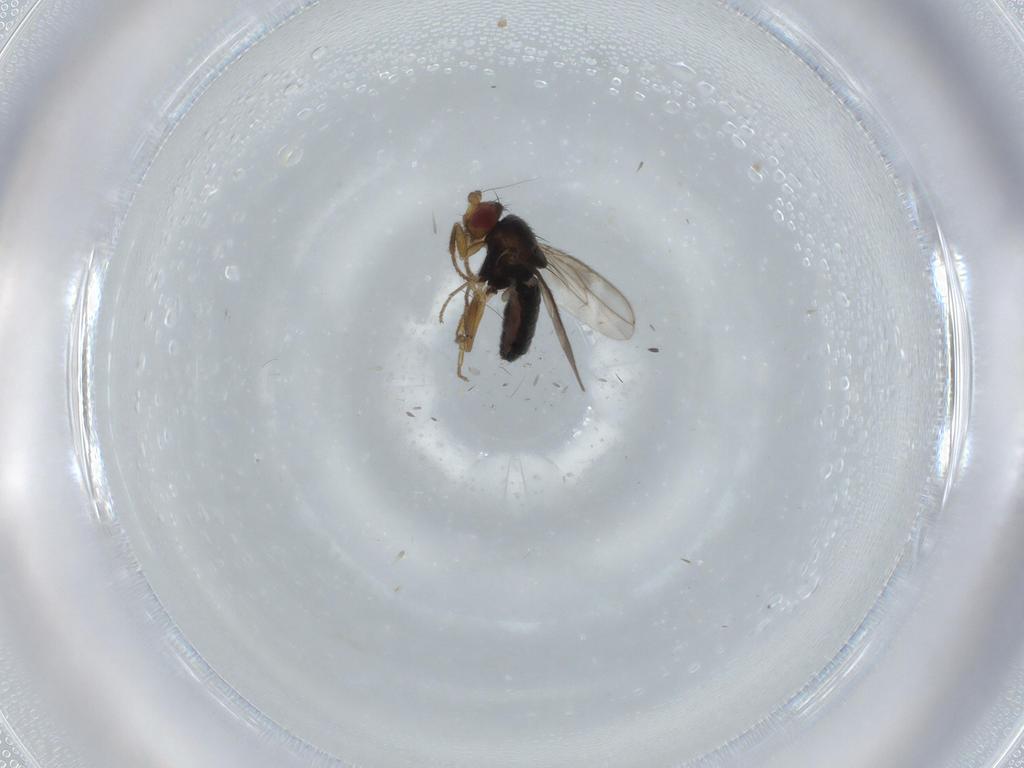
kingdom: Animalia
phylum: Arthropoda
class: Insecta
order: Diptera
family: Sphaeroceridae
